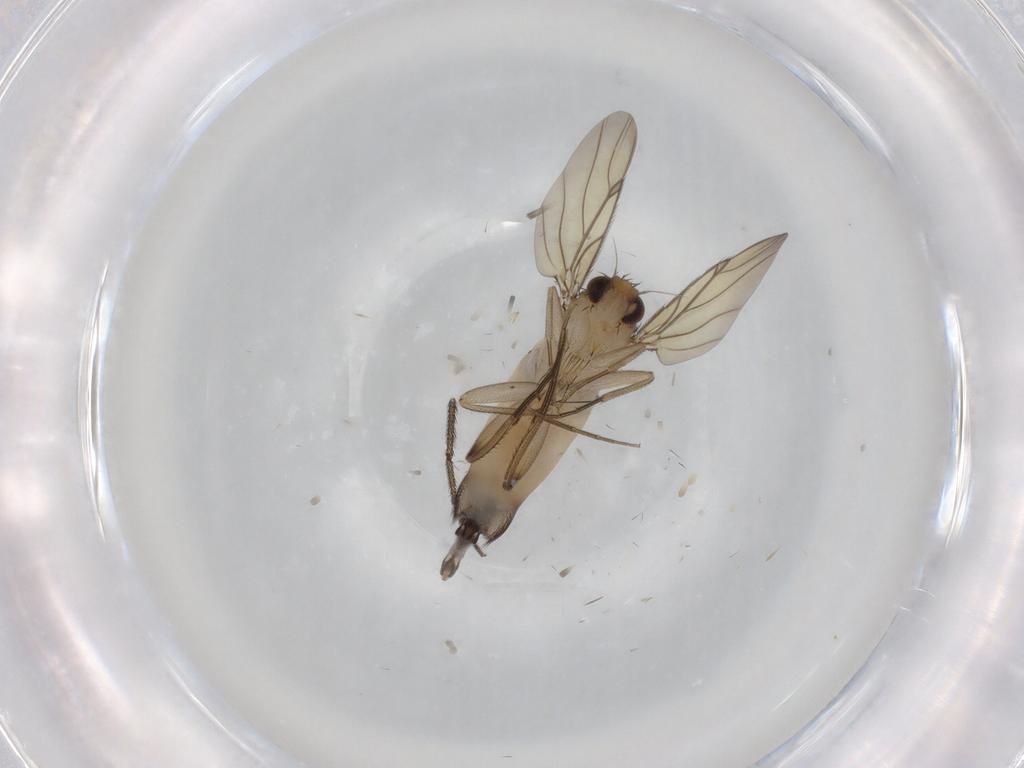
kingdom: Animalia
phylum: Arthropoda
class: Insecta
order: Diptera
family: Phoridae
